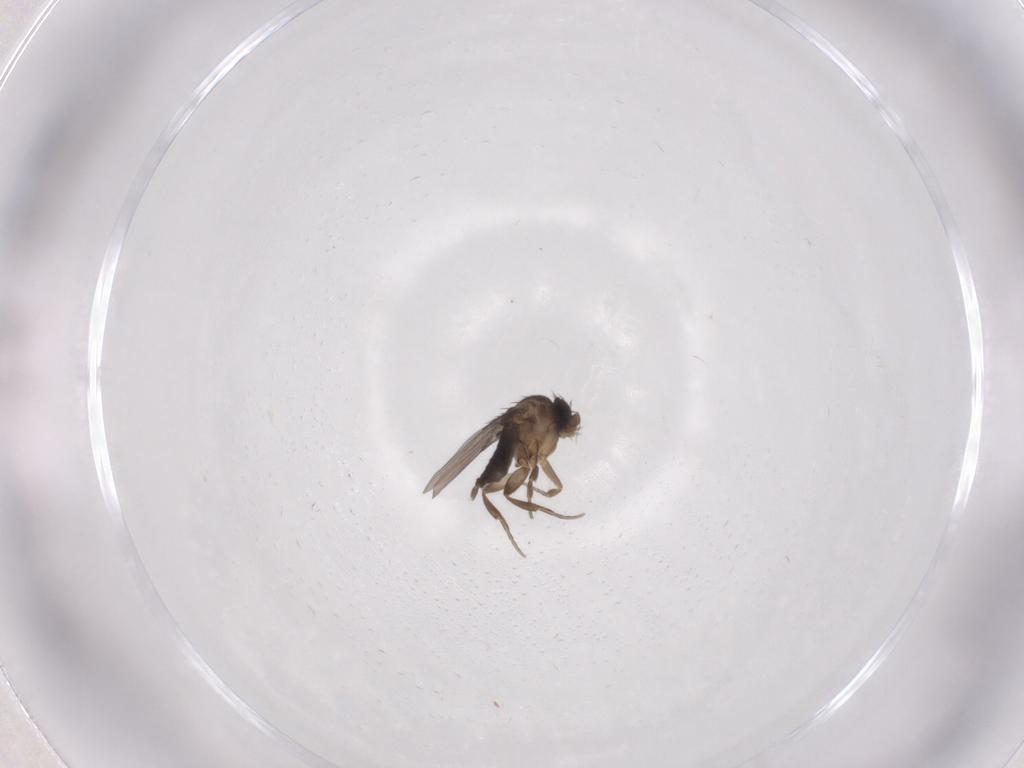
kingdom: Animalia
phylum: Arthropoda
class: Insecta
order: Diptera
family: Phoridae
